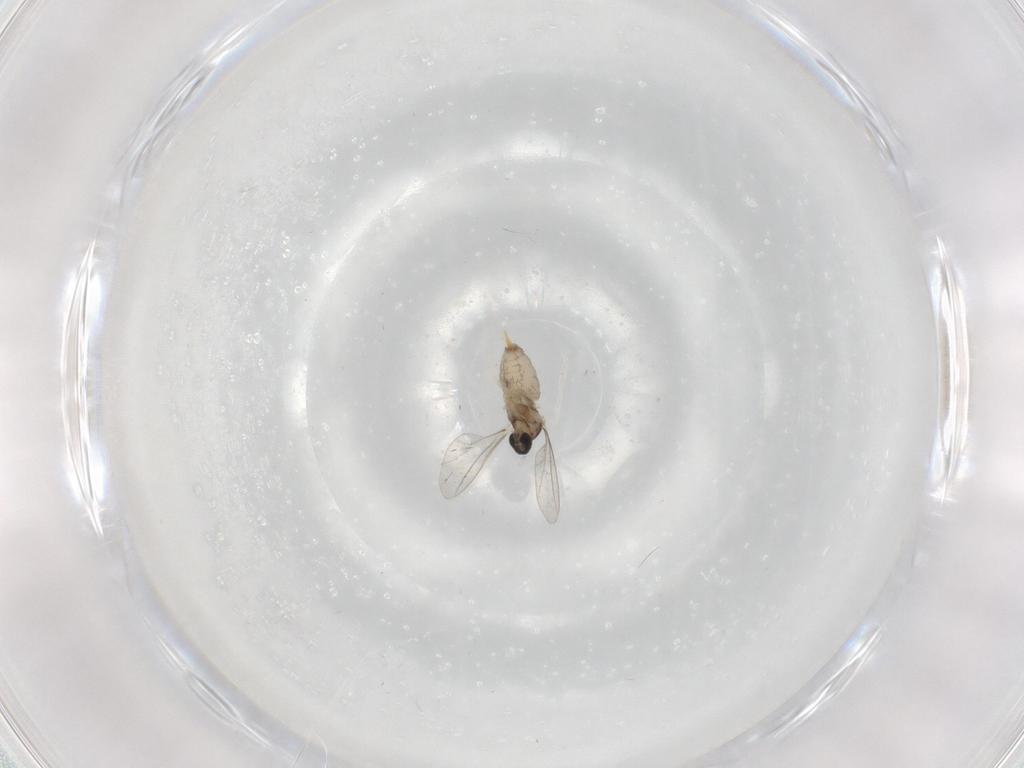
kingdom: Animalia
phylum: Arthropoda
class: Insecta
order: Diptera
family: Cecidomyiidae
